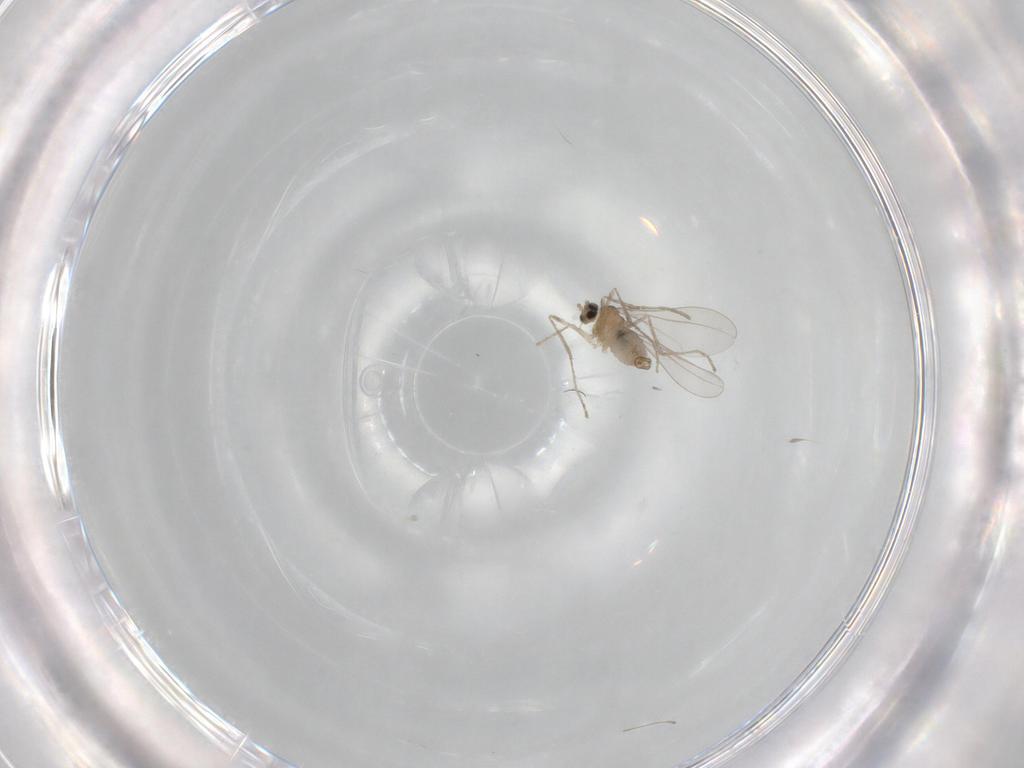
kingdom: Animalia
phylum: Arthropoda
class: Insecta
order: Diptera
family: Cecidomyiidae
